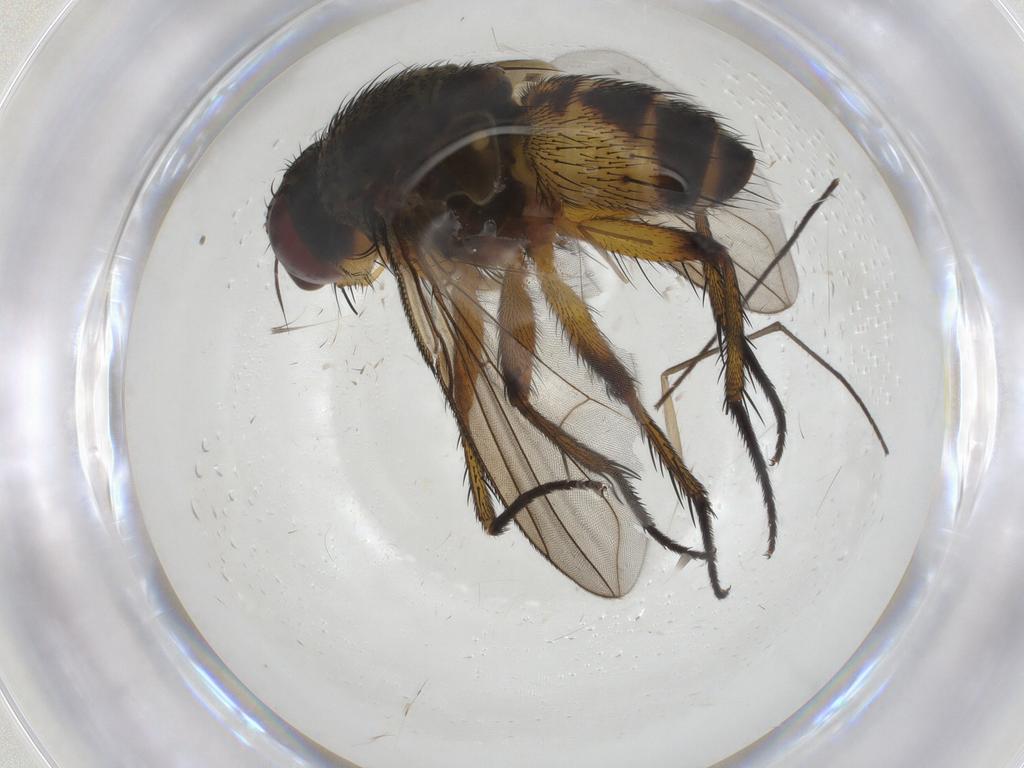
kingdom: Animalia
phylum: Arthropoda
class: Insecta
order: Diptera
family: Chironomidae
